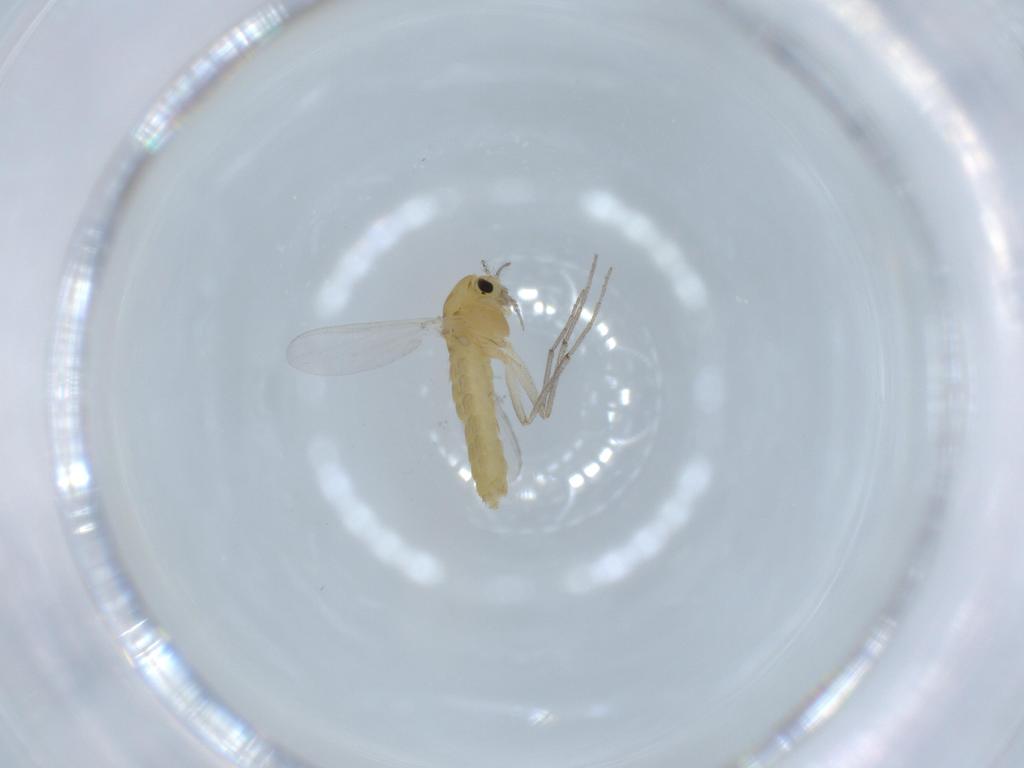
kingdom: Animalia
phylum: Arthropoda
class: Insecta
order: Diptera
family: Chironomidae
